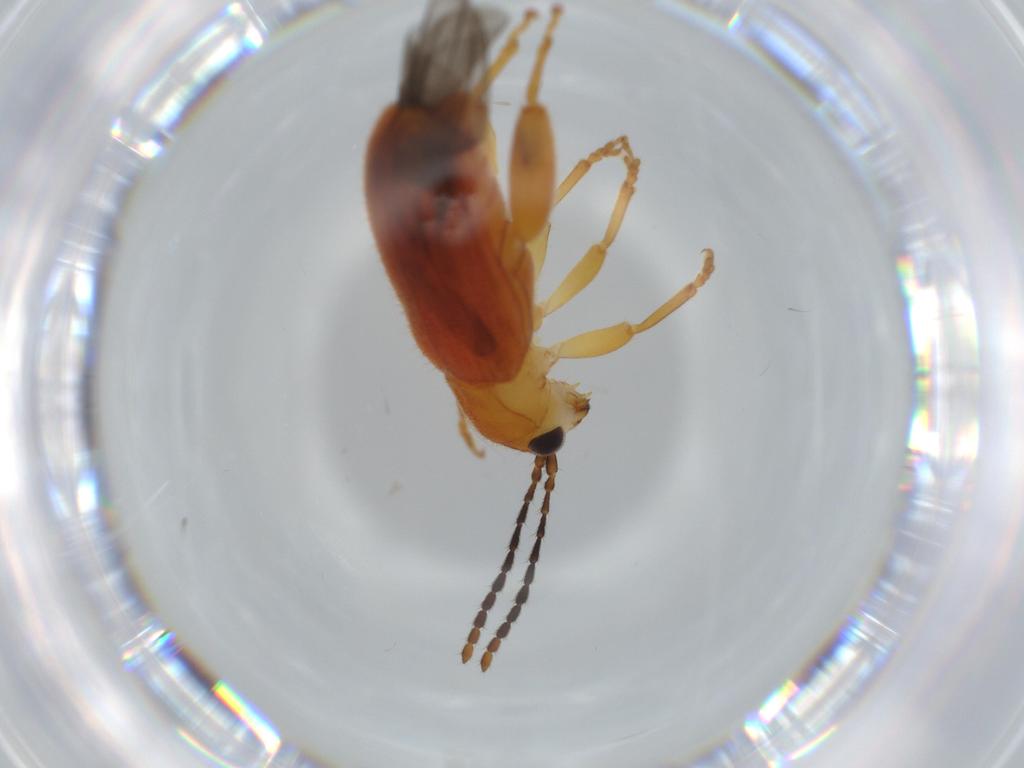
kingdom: Animalia
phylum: Arthropoda
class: Insecta
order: Coleoptera
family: Chrysomelidae
